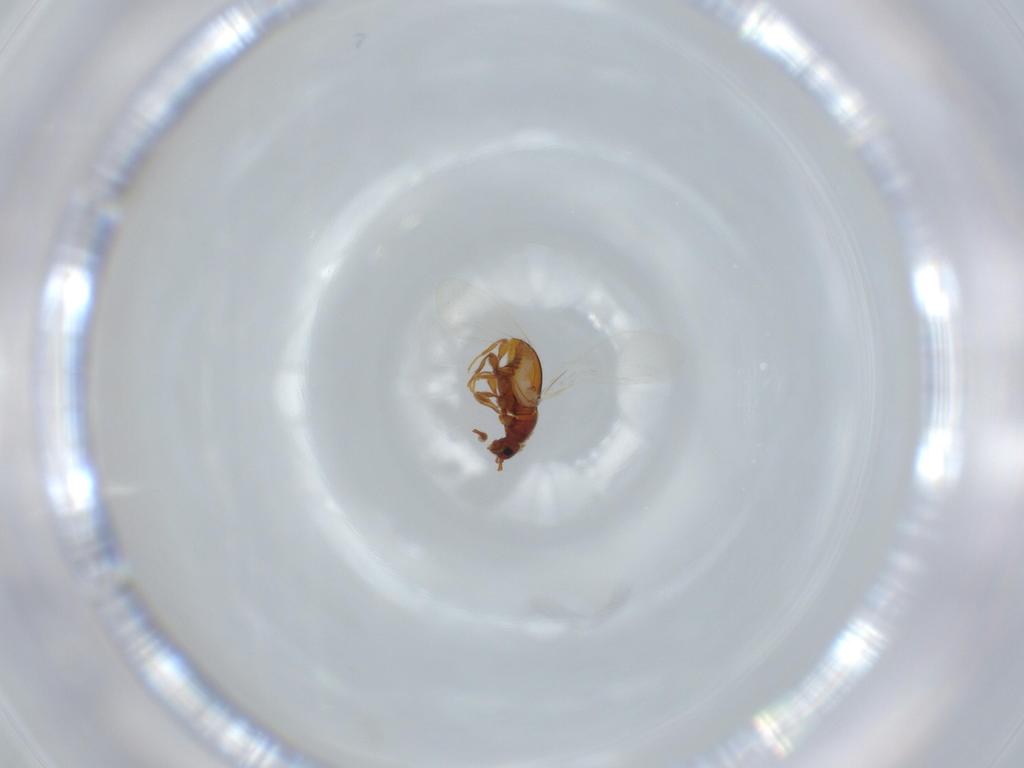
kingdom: Animalia
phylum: Arthropoda
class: Insecta
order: Coleoptera
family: Staphylinidae
